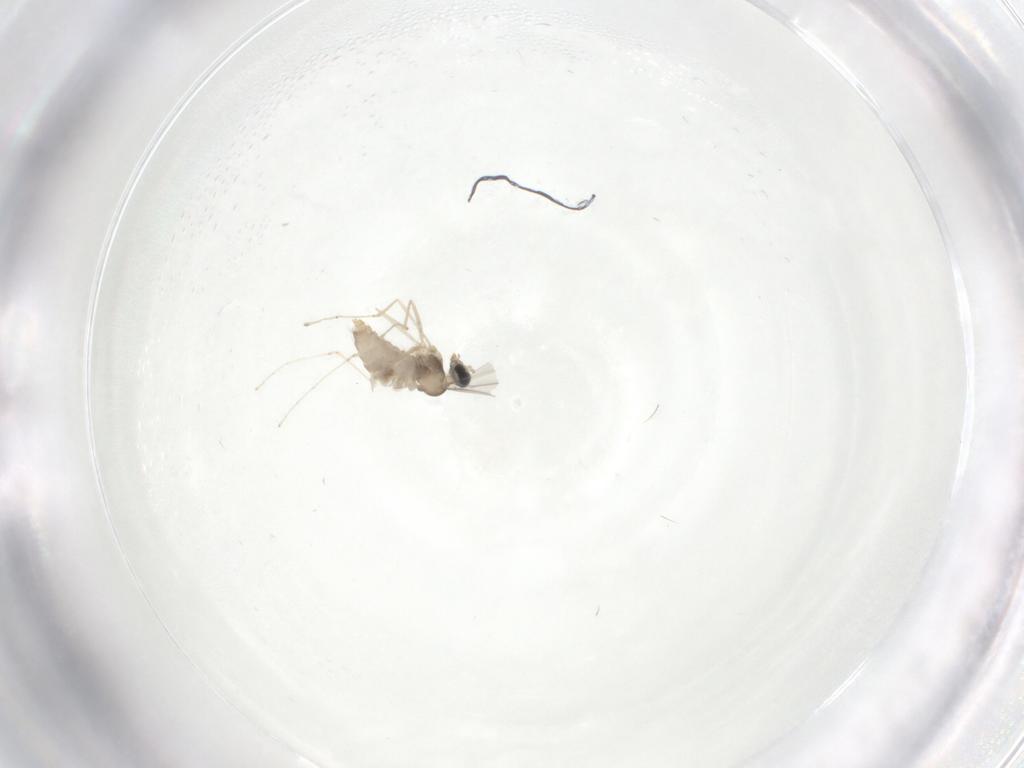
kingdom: Animalia
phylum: Arthropoda
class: Insecta
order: Diptera
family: Cecidomyiidae
